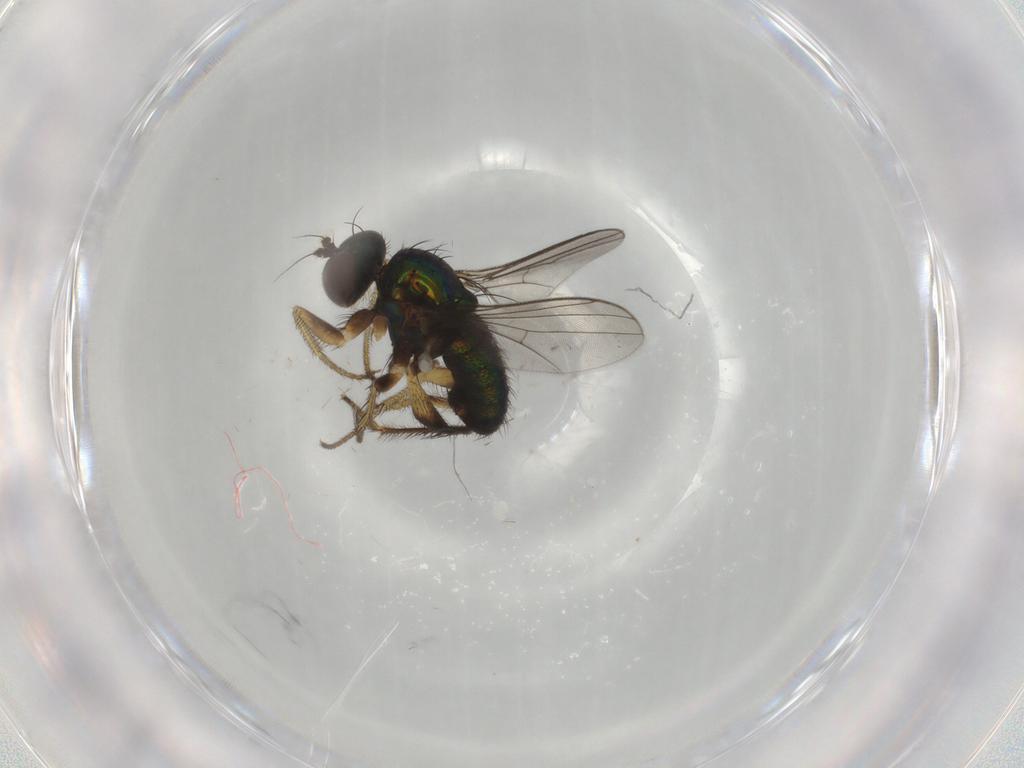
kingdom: Animalia
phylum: Arthropoda
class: Insecta
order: Diptera
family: Dolichopodidae
